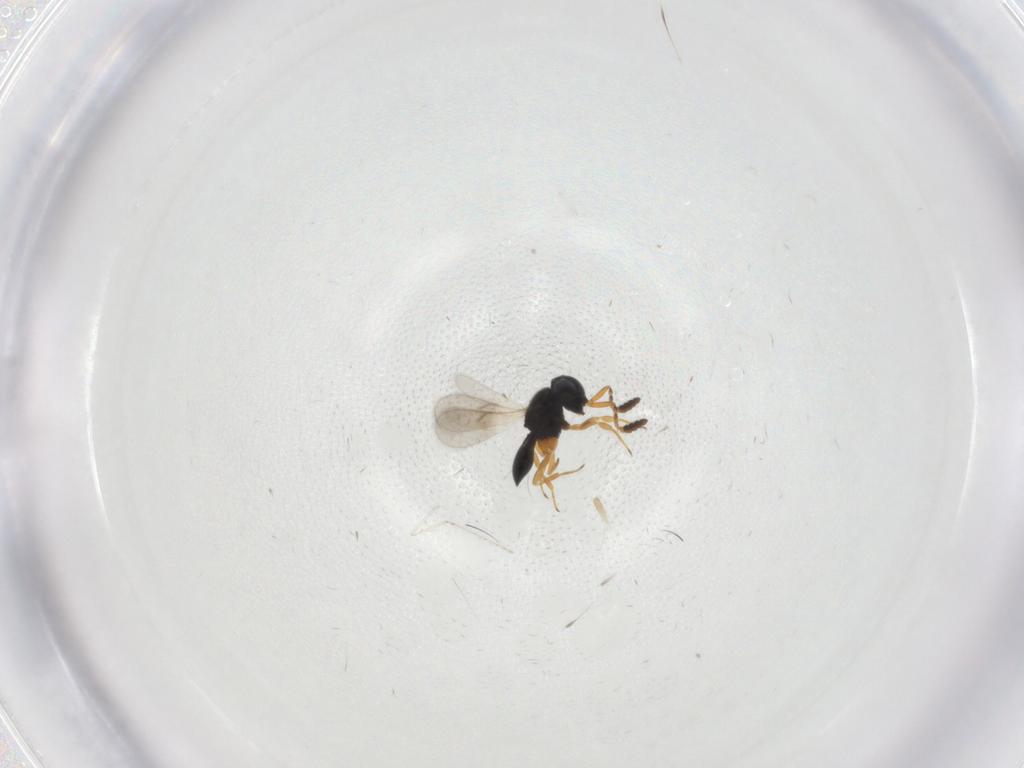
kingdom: Animalia
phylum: Arthropoda
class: Insecta
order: Hymenoptera
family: Scelionidae
